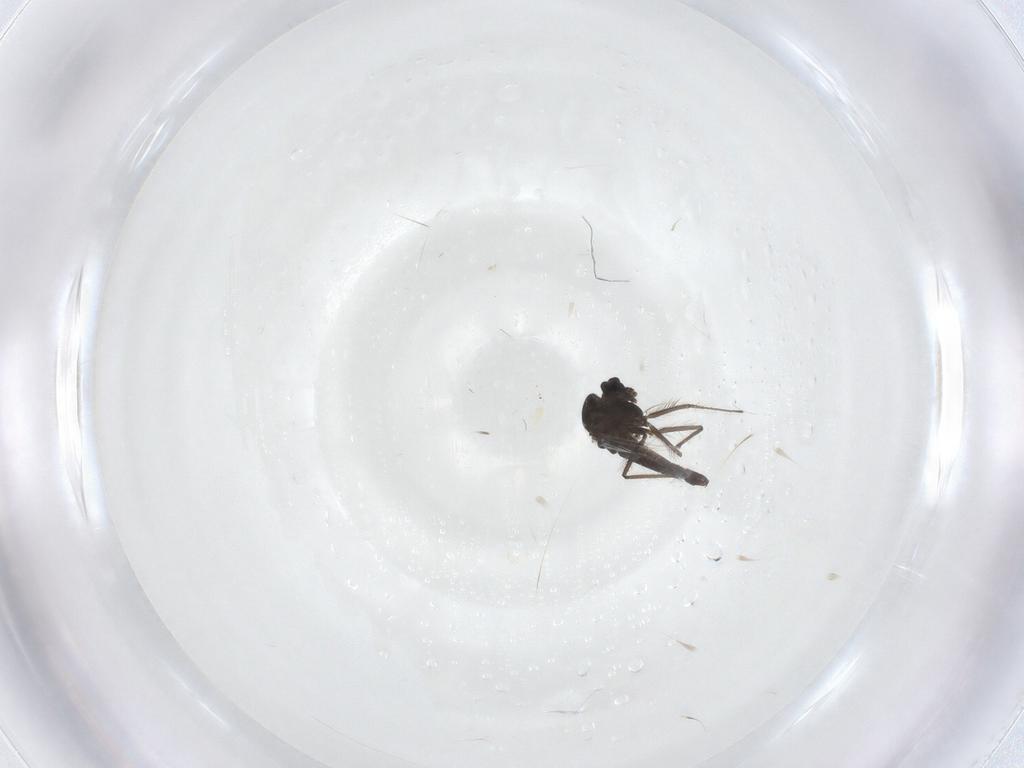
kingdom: Animalia
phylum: Arthropoda
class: Insecta
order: Diptera
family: Chironomidae
